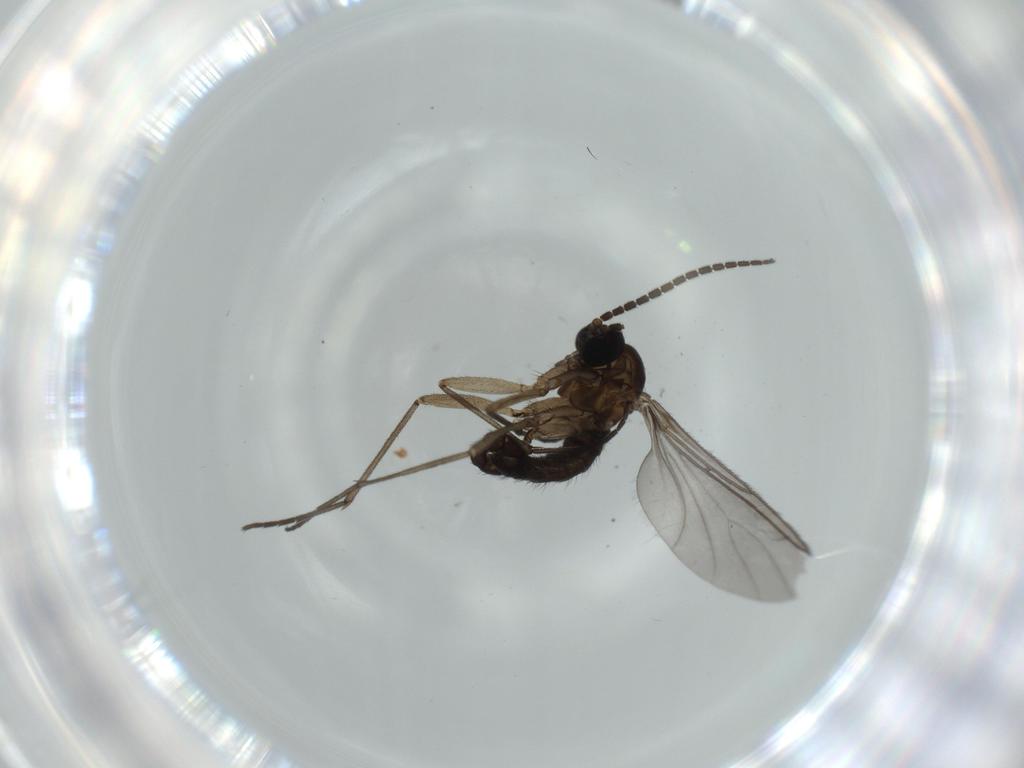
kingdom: Animalia
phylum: Arthropoda
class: Insecta
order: Diptera
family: Sciaridae
